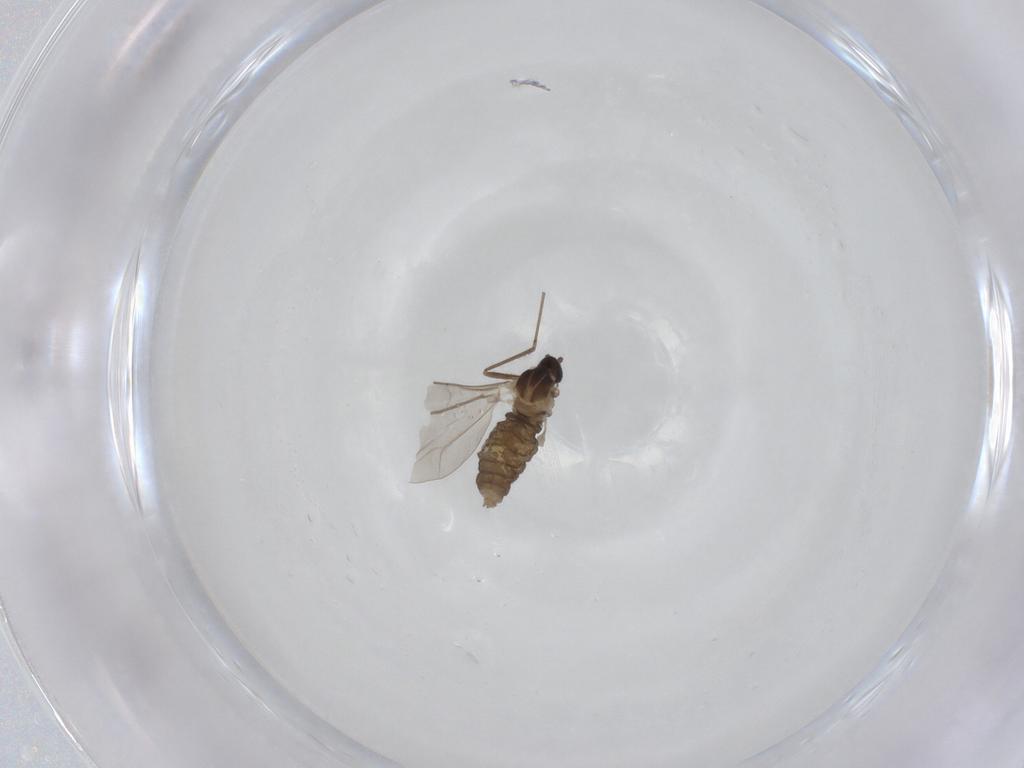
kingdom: Animalia
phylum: Arthropoda
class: Insecta
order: Diptera
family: Cecidomyiidae
